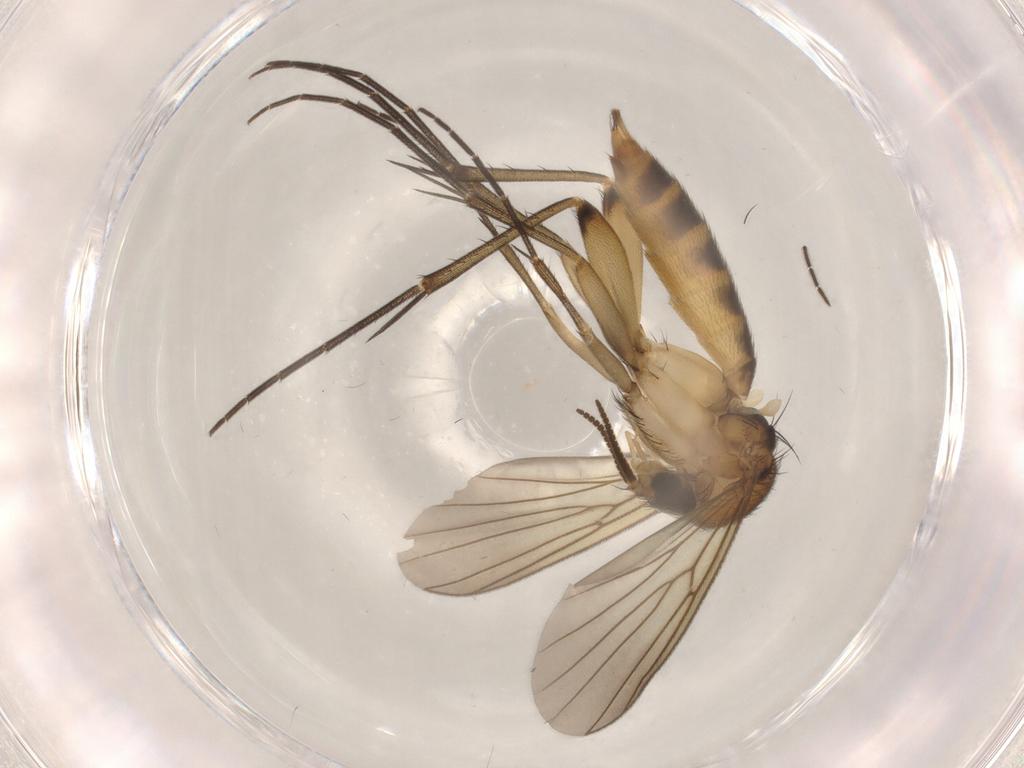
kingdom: Animalia
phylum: Arthropoda
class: Insecta
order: Diptera
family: Mycetophilidae
